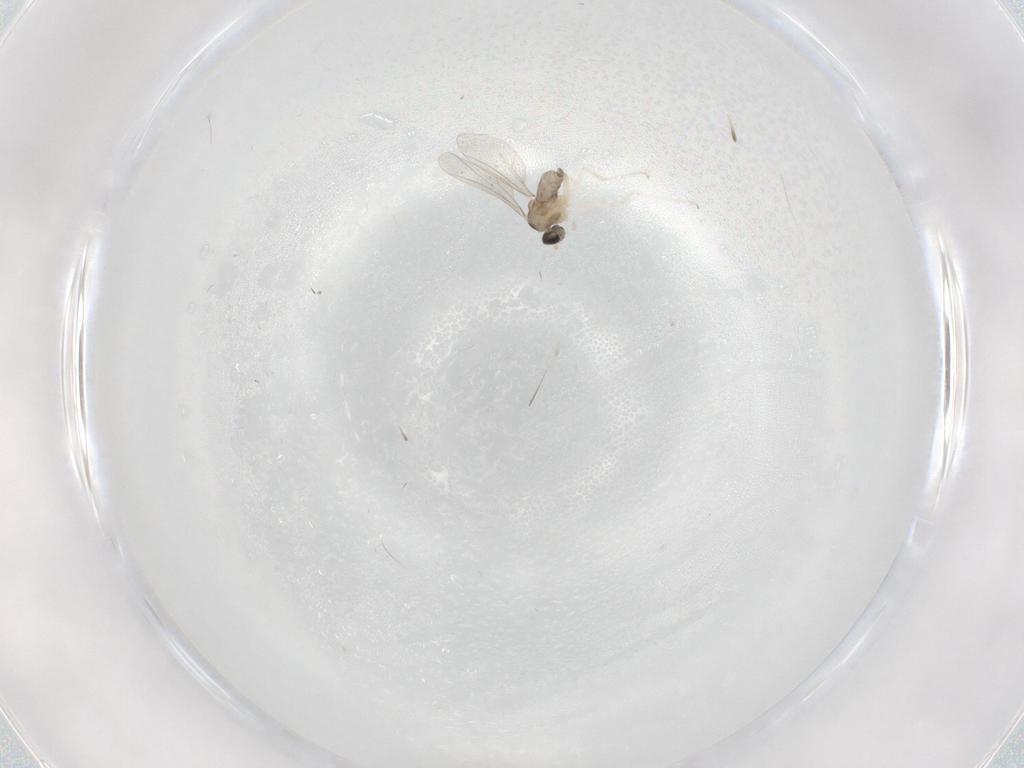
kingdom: Animalia
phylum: Arthropoda
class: Insecta
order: Diptera
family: Cecidomyiidae
